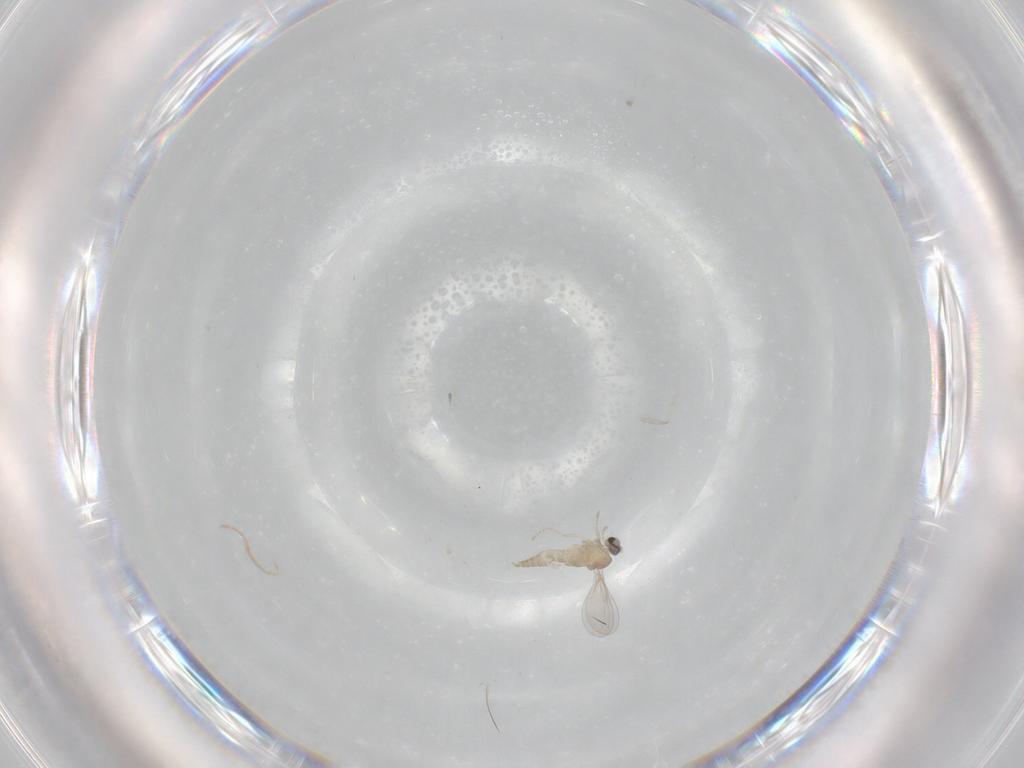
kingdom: Animalia
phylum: Arthropoda
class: Insecta
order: Diptera
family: Cecidomyiidae
